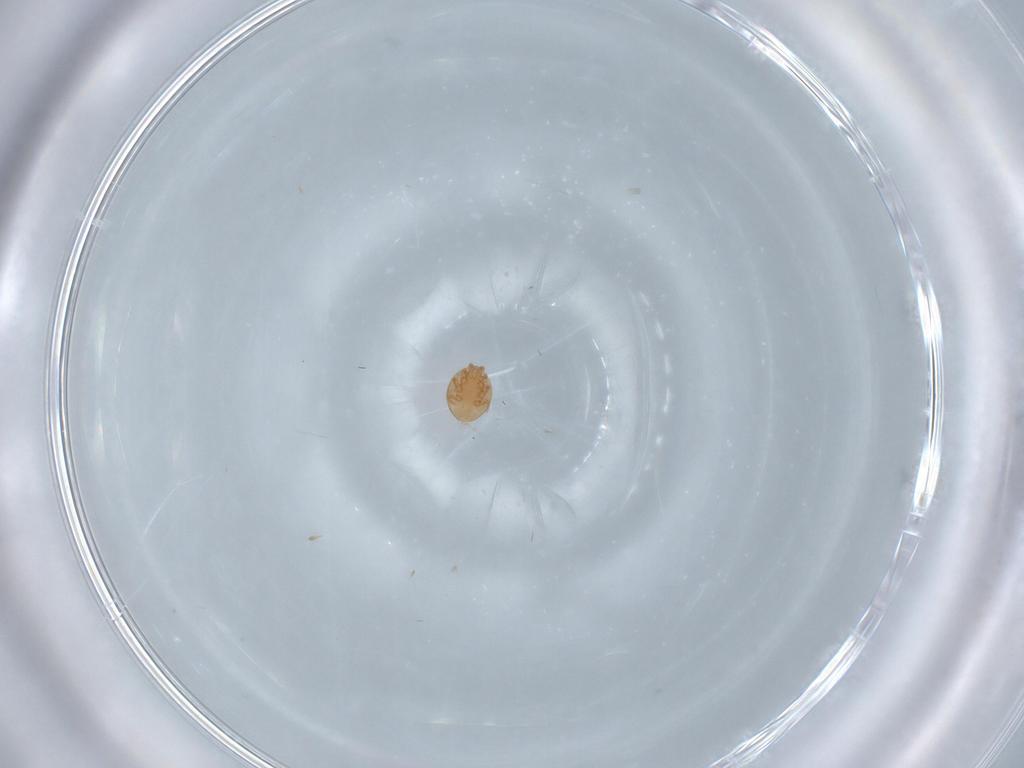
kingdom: Animalia
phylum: Arthropoda
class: Arachnida
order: Mesostigmata
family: Trematuridae
